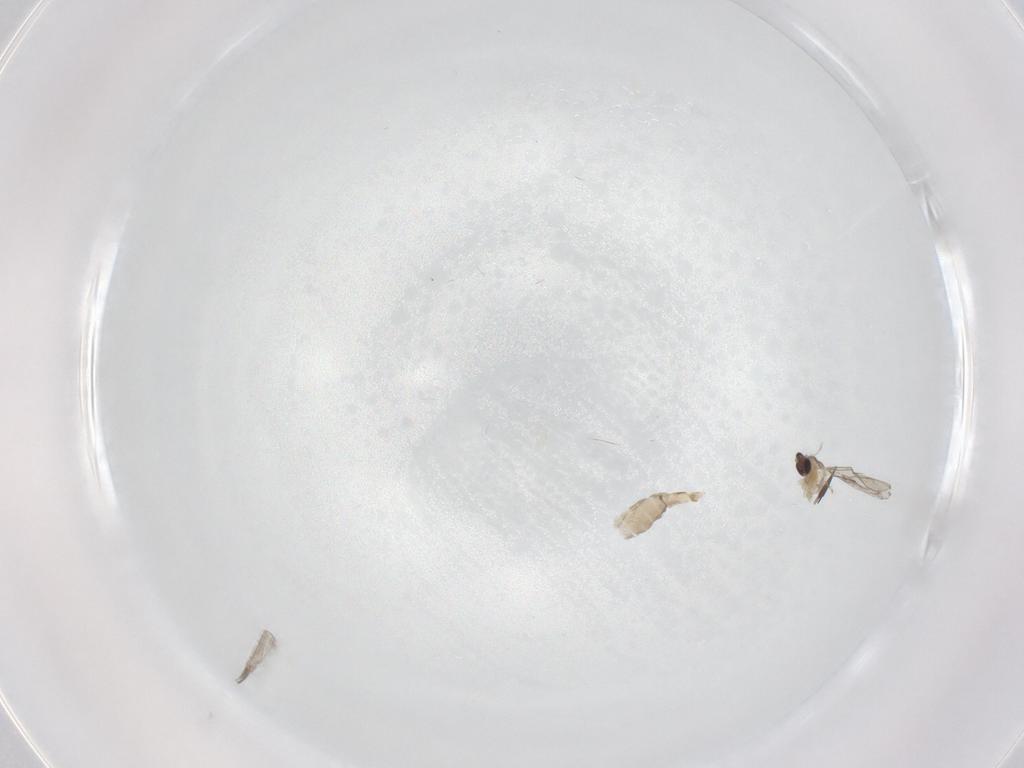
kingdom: Animalia
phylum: Arthropoda
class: Insecta
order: Diptera
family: Cecidomyiidae
